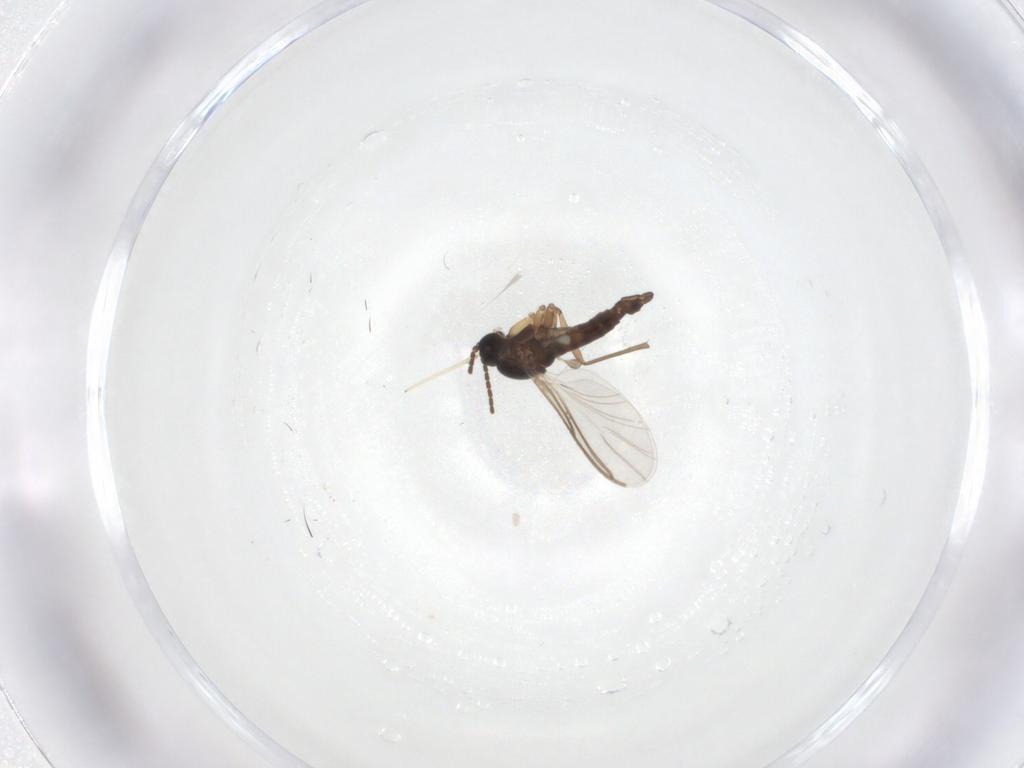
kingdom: Animalia
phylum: Arthropoda
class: Insecta
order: Diptera
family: Sciaridae
